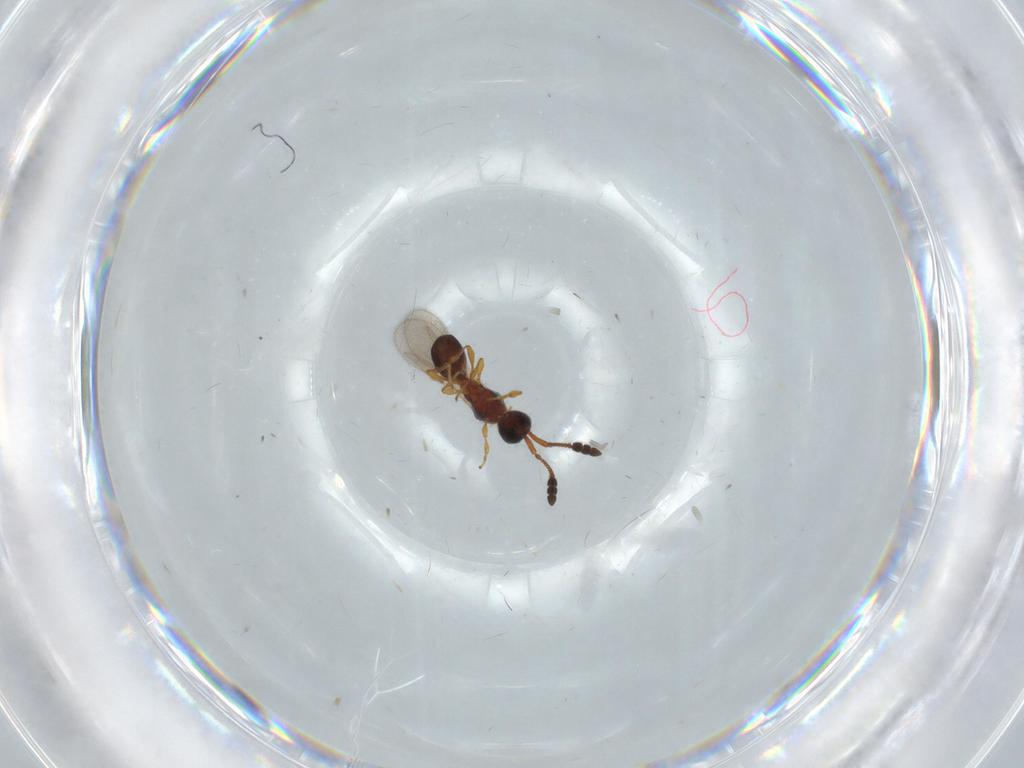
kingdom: Animalia
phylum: Arthropoda
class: Insecta
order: Hymenoptera
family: Diapriidae
